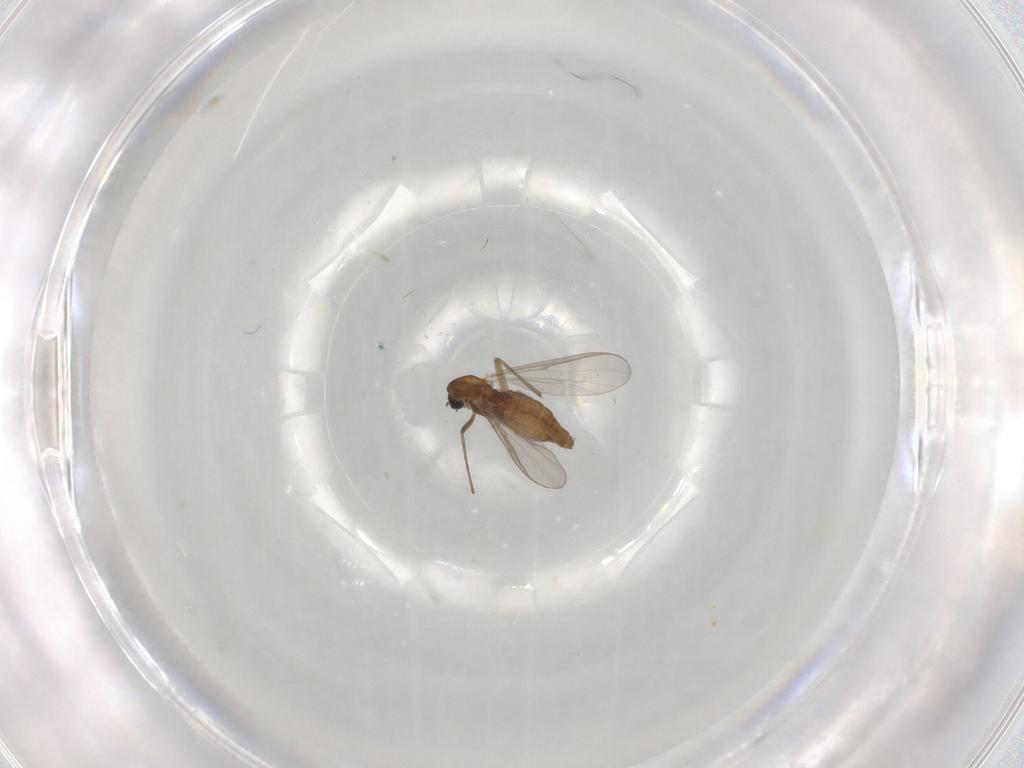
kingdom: Animalia
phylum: Arthropoda
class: Insecta
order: Diptera
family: Chironomidae
